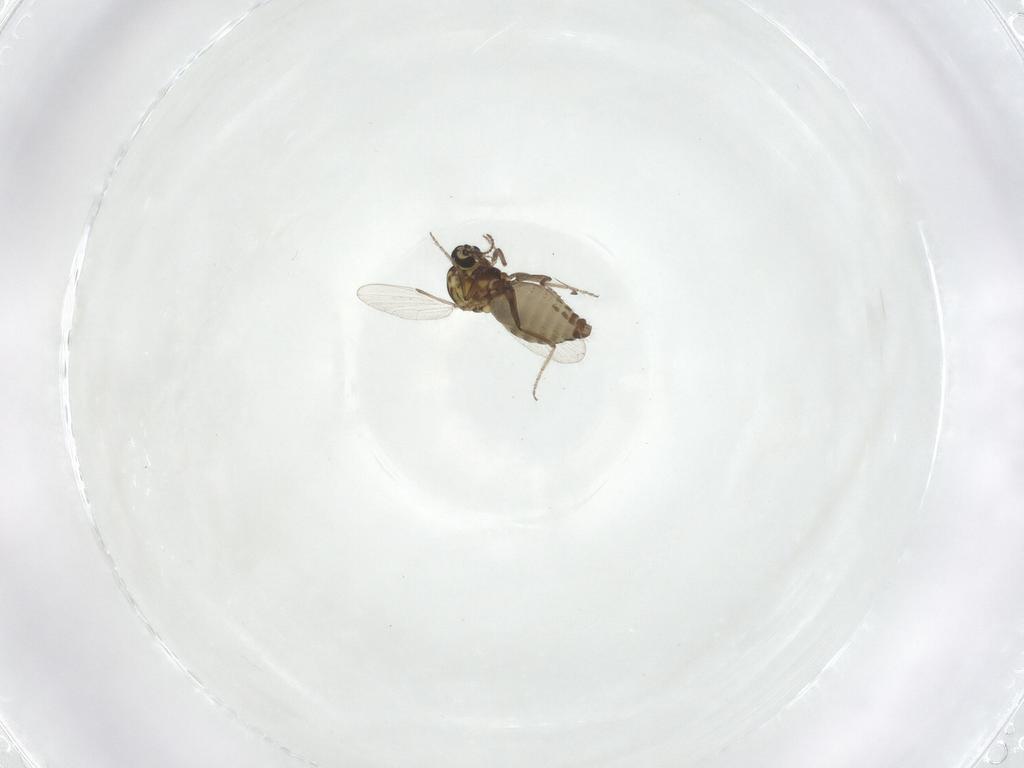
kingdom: Animalia
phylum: Arthropoda
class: Insecta
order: Diptera
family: Ceratopogonidae
